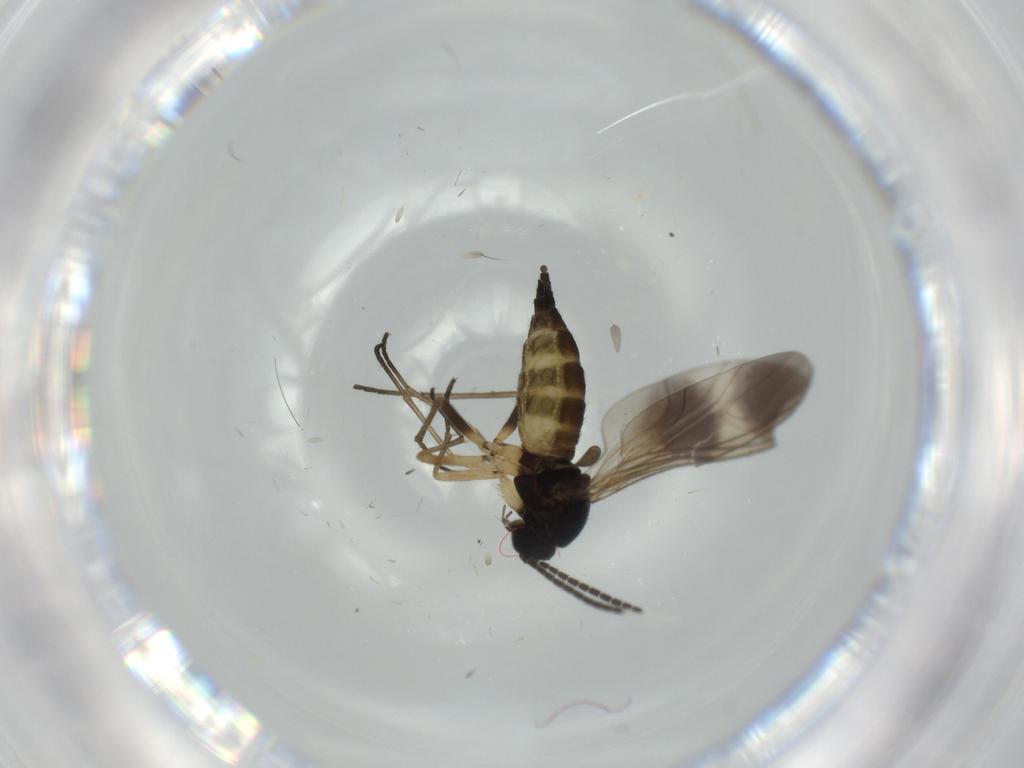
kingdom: Animalia
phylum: Arthropoda
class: Insecta
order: Diptera
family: Sciaridae
